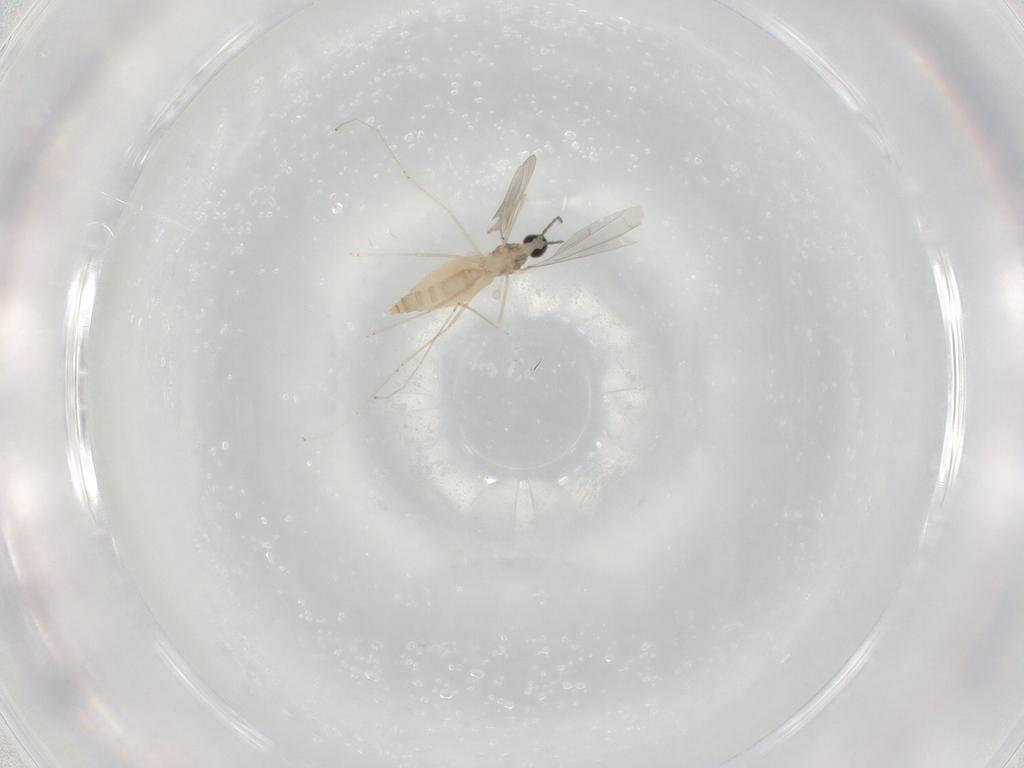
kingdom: Animalia
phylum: Arthropoda
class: Insecta
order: Diptera
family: Cecidomyiidae
